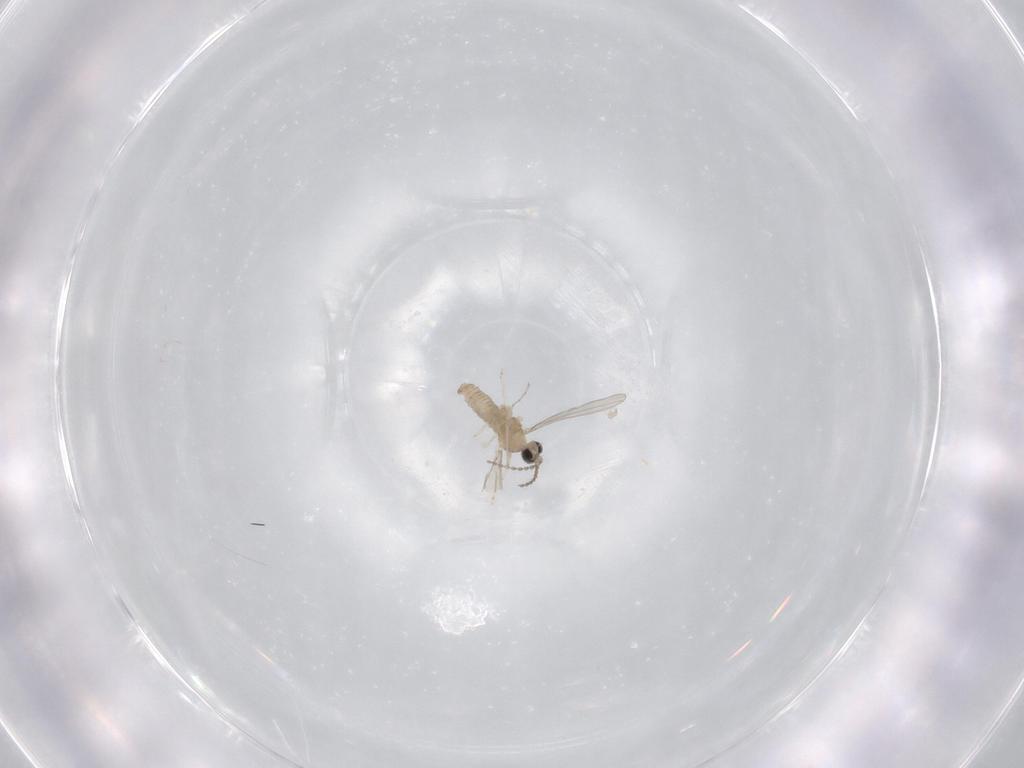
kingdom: Animalia
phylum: Arthropoda
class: Insecta
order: Diptera
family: Cecidomyiidae
